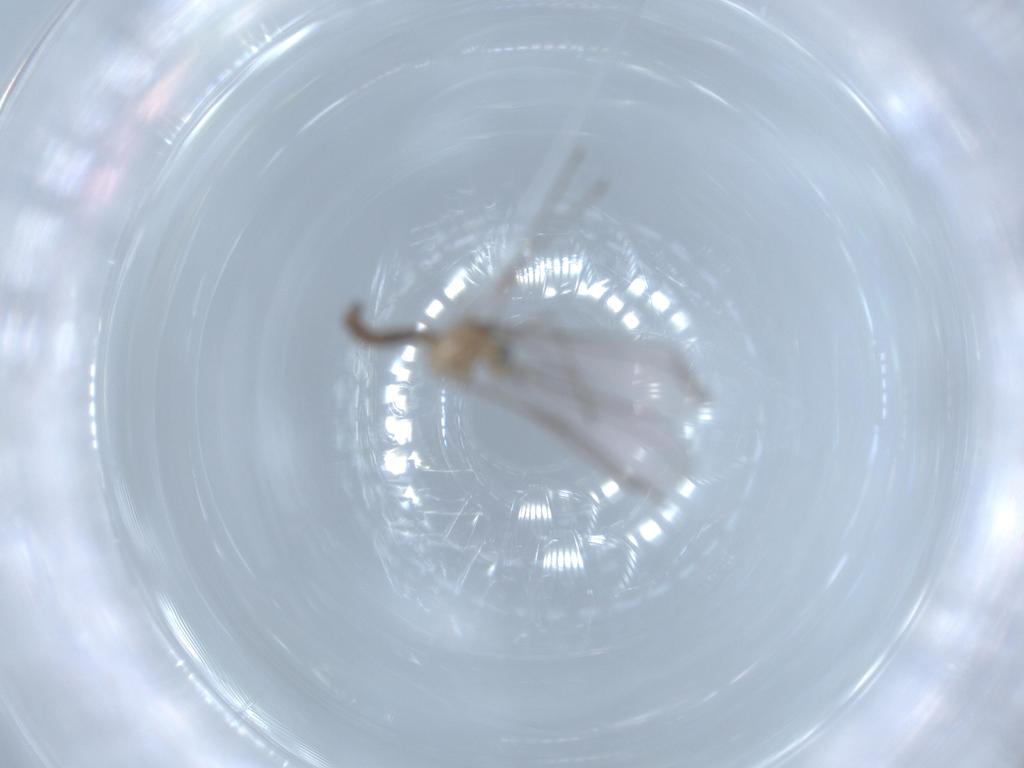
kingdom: Animalia
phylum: Arthropoda
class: Insecta
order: Diptera
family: Cecidomyiidae
